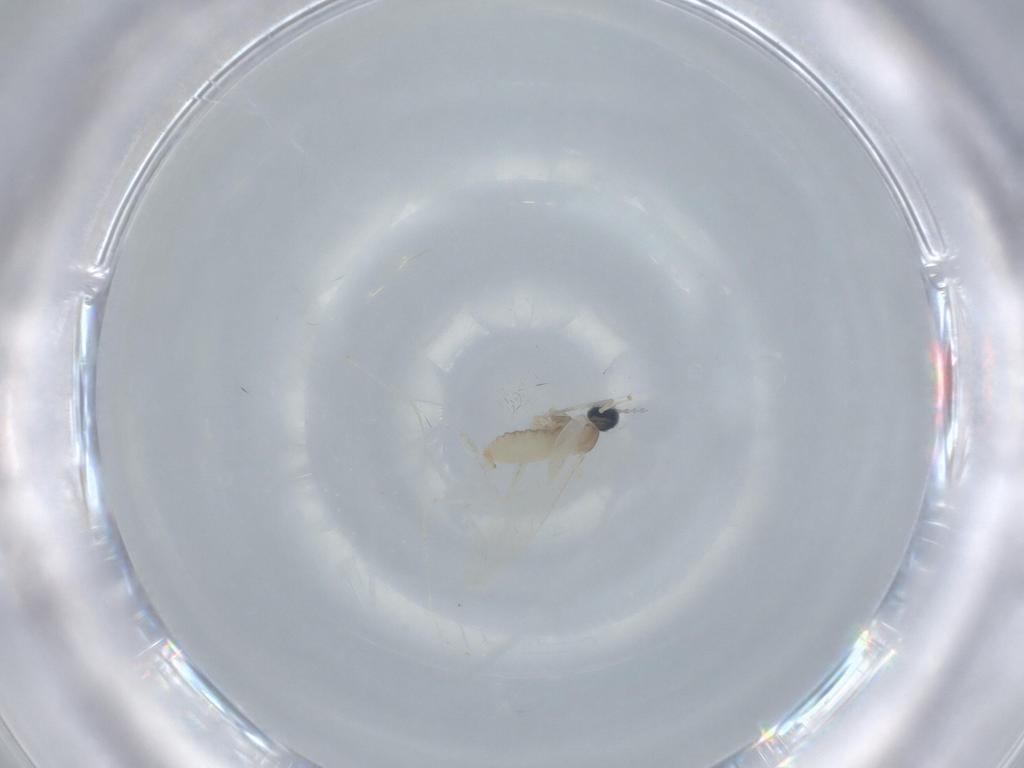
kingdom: Animalia
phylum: Arthropoda
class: Insecta
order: Diptera
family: Cecidomyiidae
